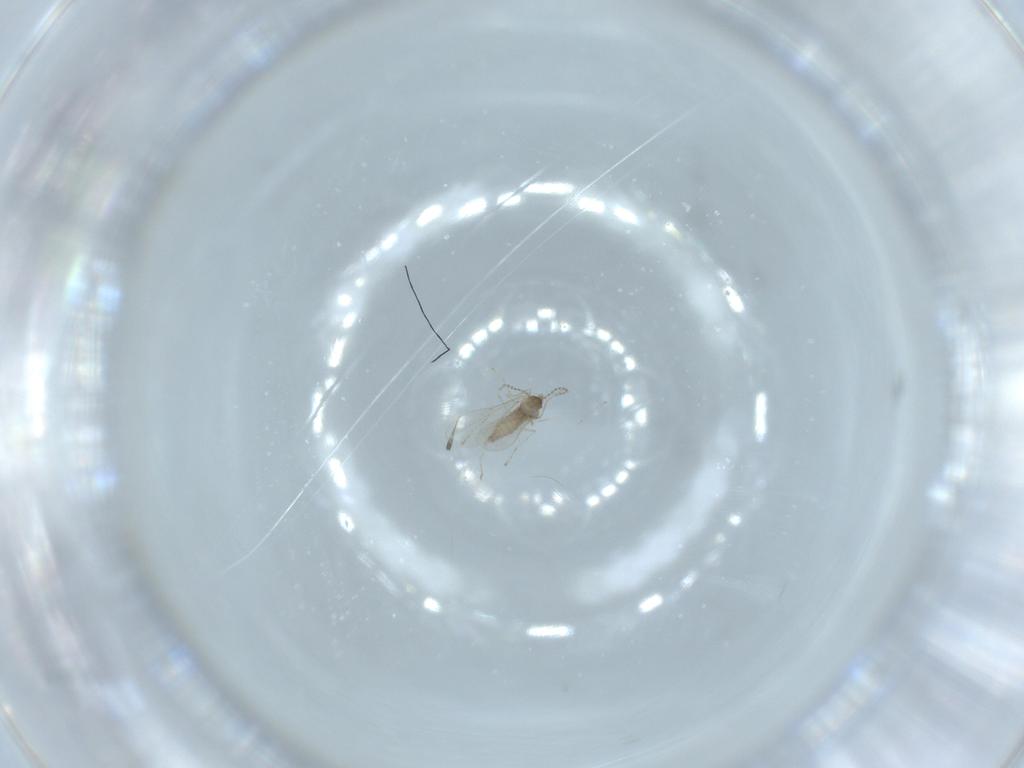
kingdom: Animalia
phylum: Arthropoda
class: Insecta
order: Diptera
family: Cecidomyiidae
